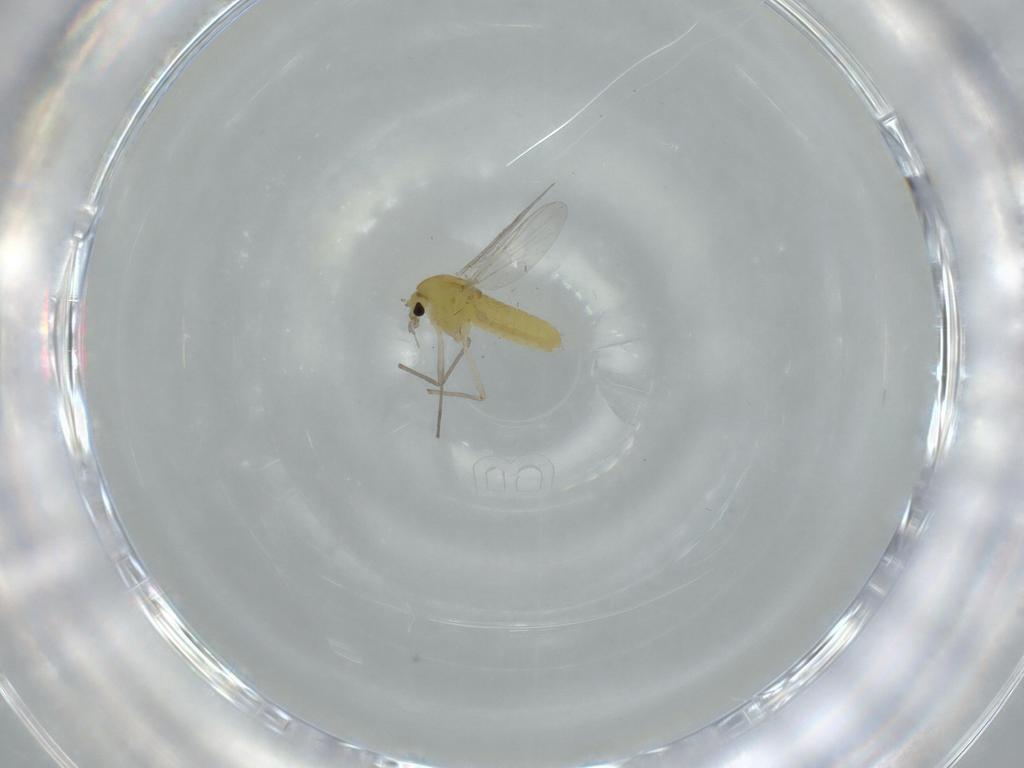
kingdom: Animalia
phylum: Arthropoda
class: Insecta
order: Diptera
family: Chironomidae
